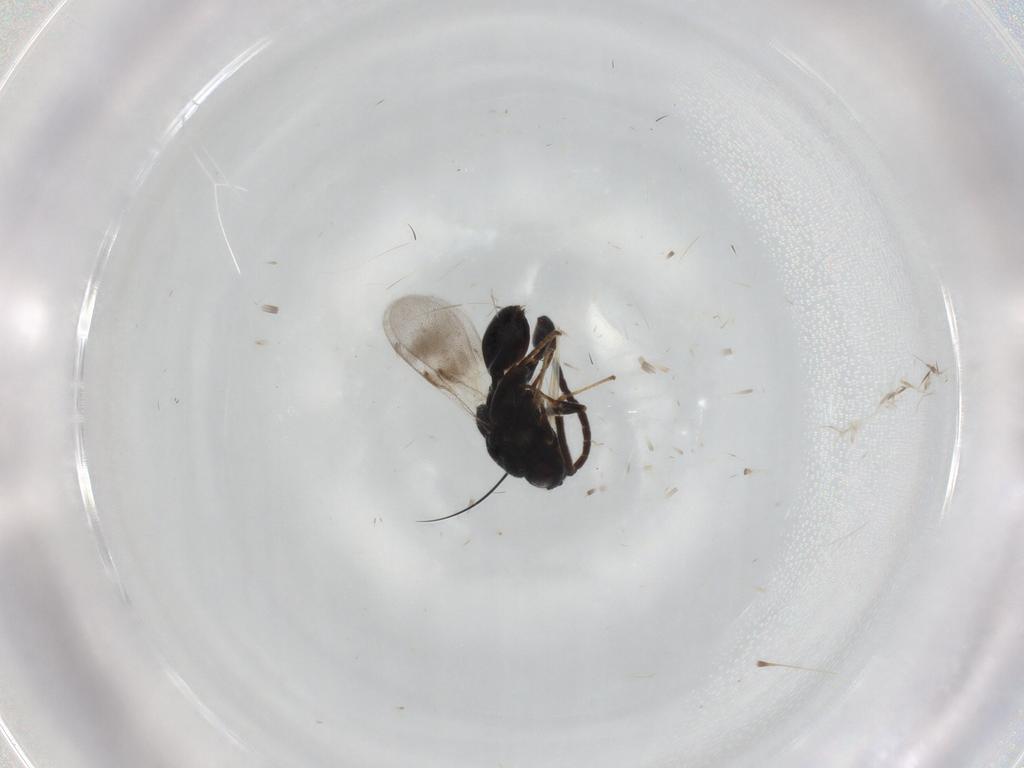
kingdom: Animalia
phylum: Arthropoda
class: Insecta
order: Hymenoptera
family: Chalcididae
